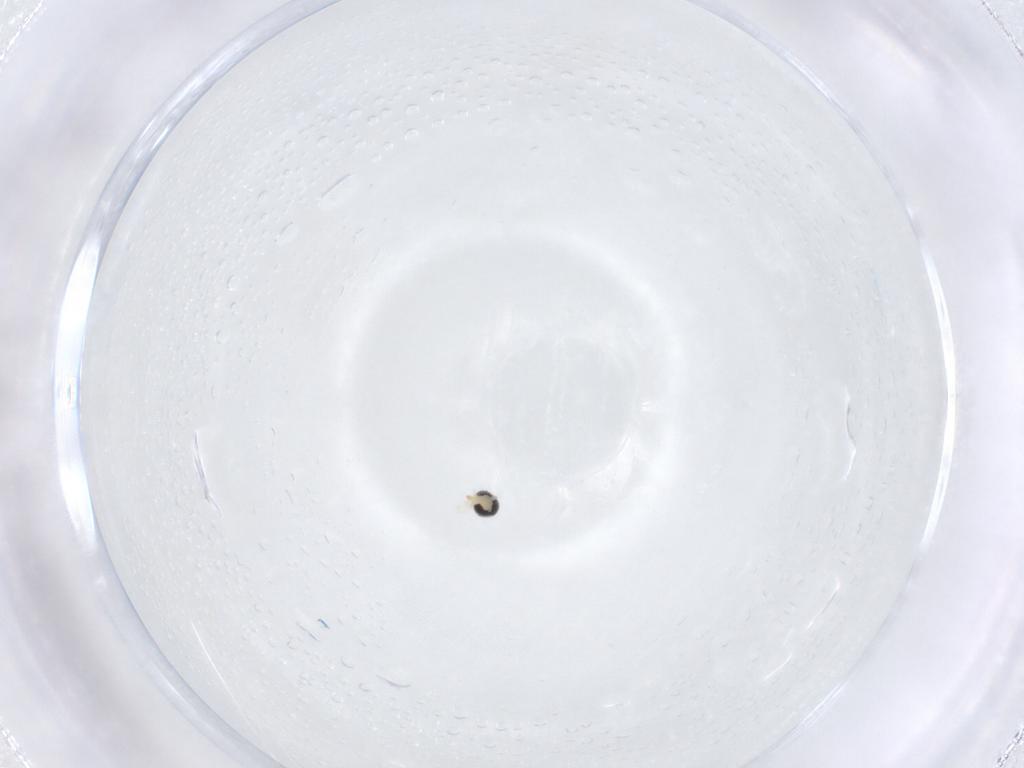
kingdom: Animalia
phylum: Arthropoda
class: Insecta
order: Diptera
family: Cecidomyiidae
